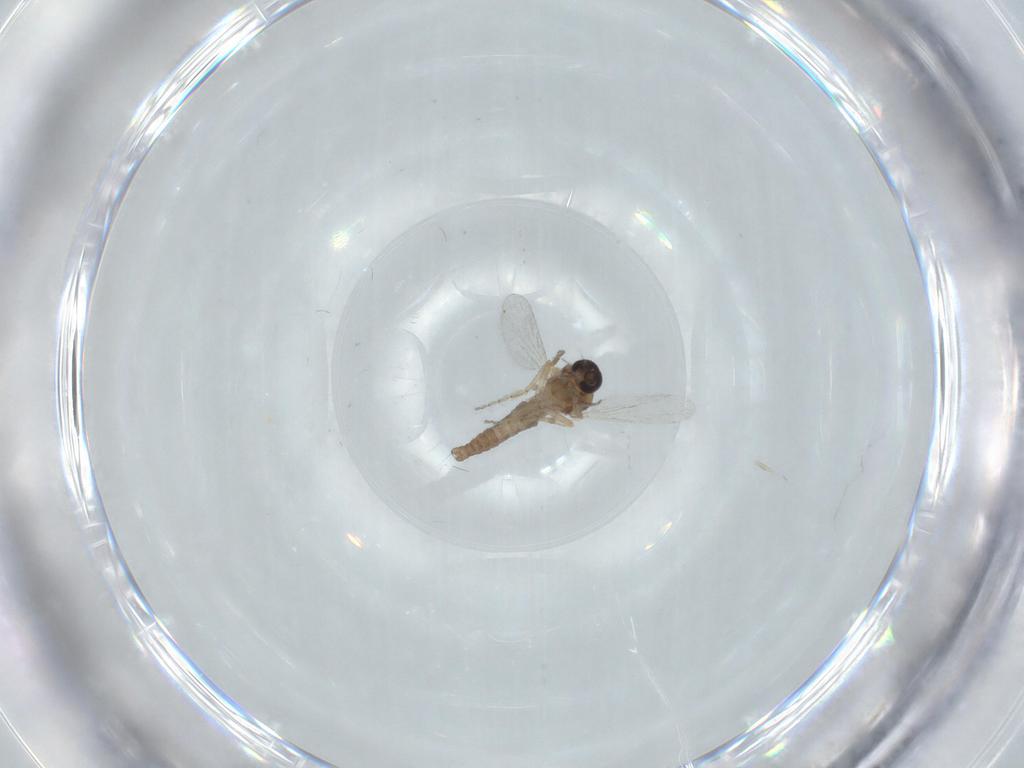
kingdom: Animalia
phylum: Arthropoda
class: Insecta
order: Diptera
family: Ceratopogonidae
